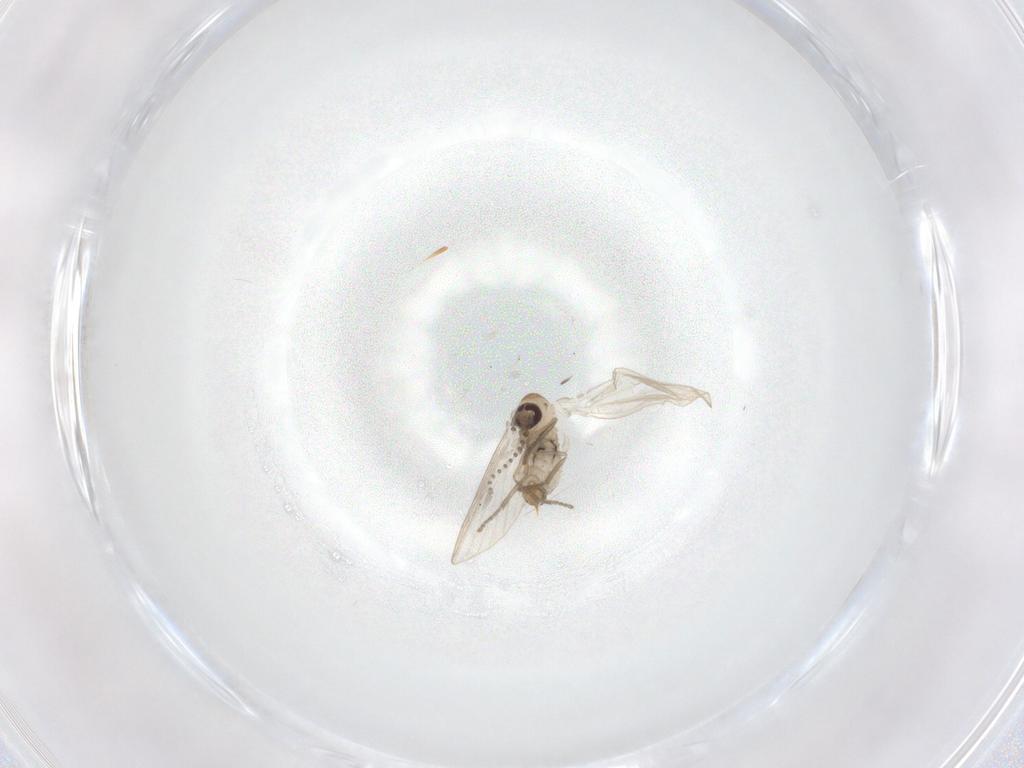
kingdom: Animalia
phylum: Arthropoda
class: Insecta
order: Diptera
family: Psychodidae
